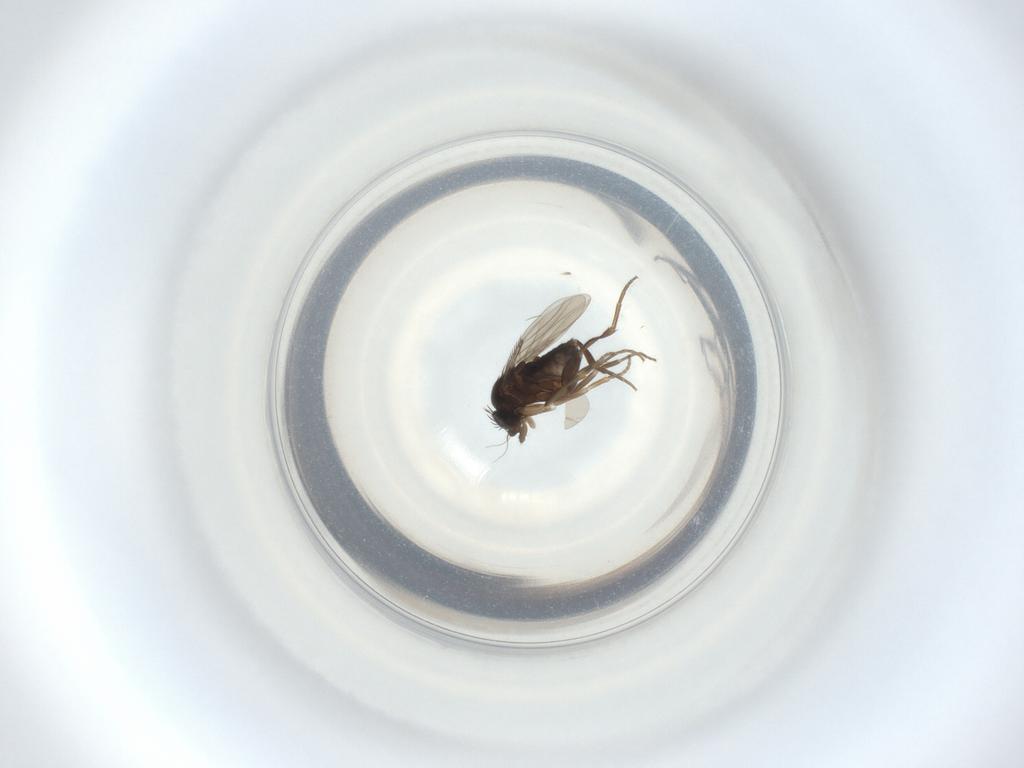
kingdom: Animalia
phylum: Arthropoda
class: Insecta
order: Diptera
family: Phoridae
